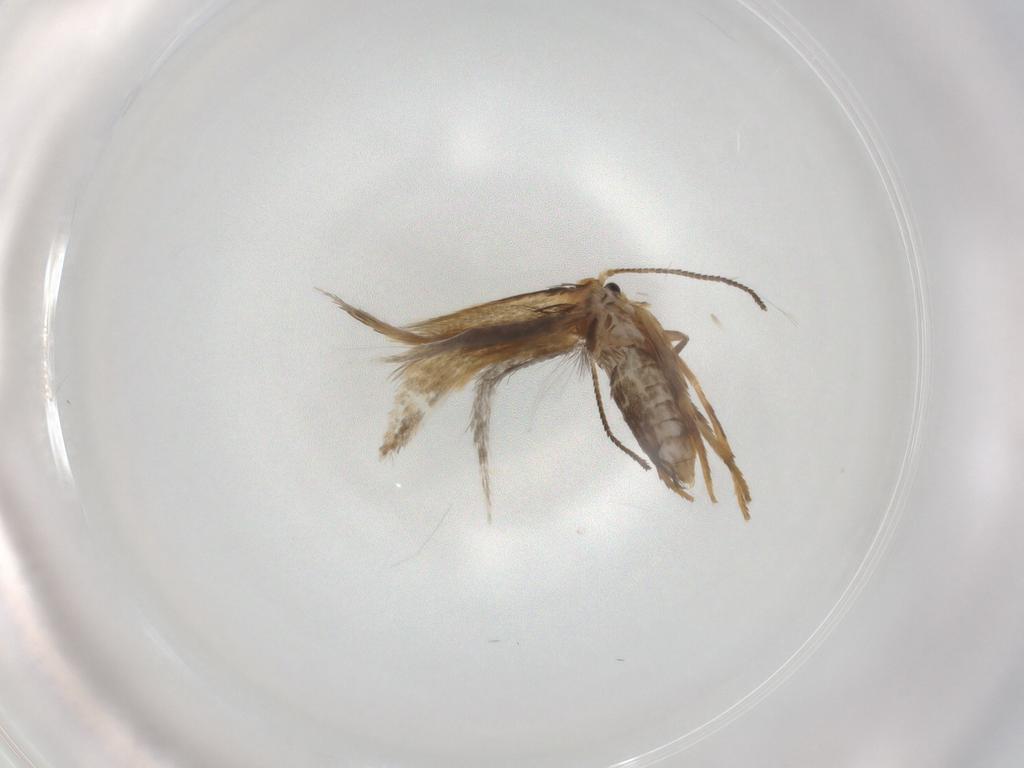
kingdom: Animalia
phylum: Arthropoda
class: Insecta
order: Lepidoptera
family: Nepticulidae
